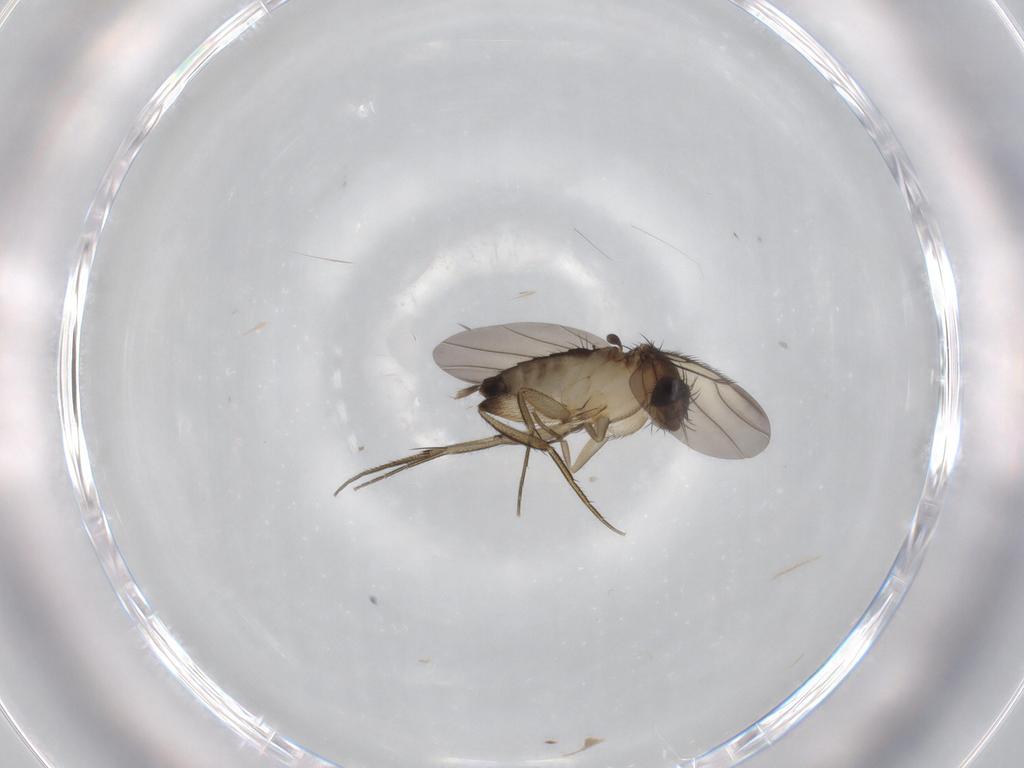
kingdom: Animalia
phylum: Arthropoda
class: Insecta
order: Diptera
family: Phoridae
